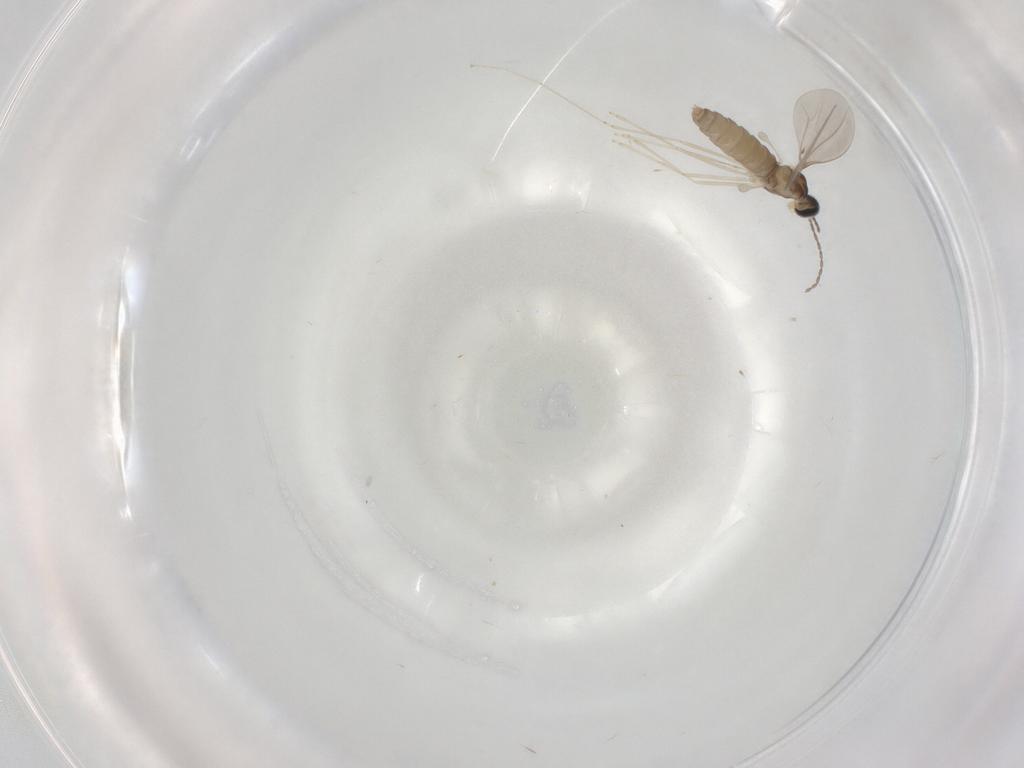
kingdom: Animalia
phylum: Arthropoda
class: Insecta
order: Diptera
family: Cecidomyiidae
